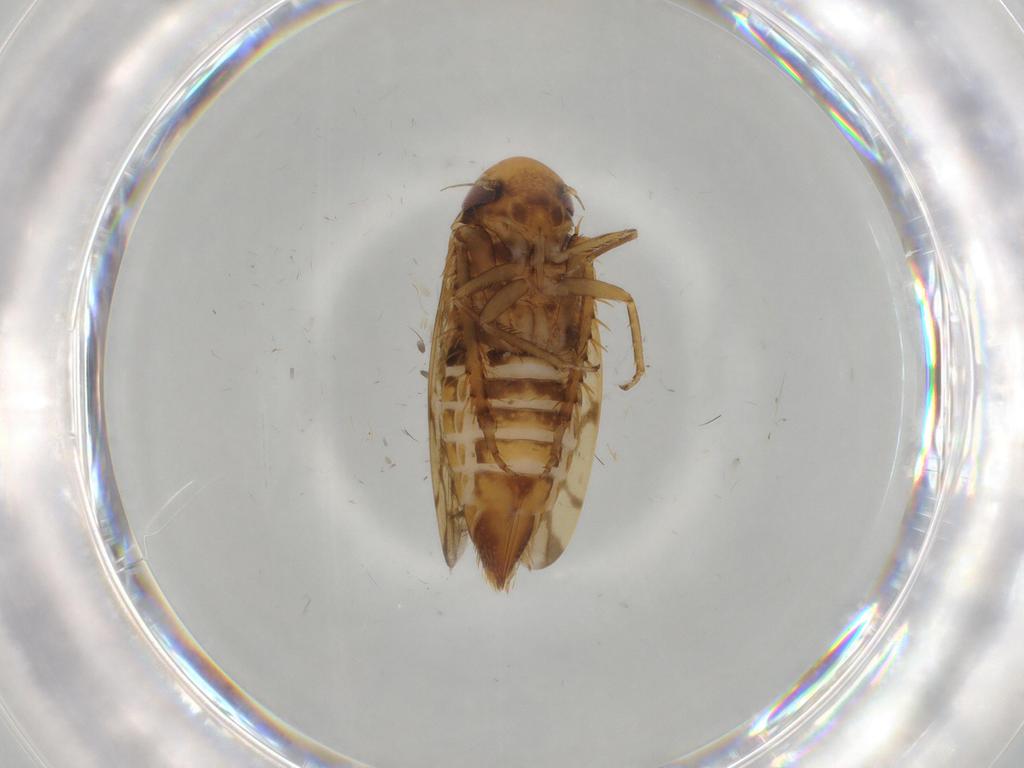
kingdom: Animalia
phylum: Arthropoda
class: Insecta
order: Hemiptera
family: Cicadellidae
